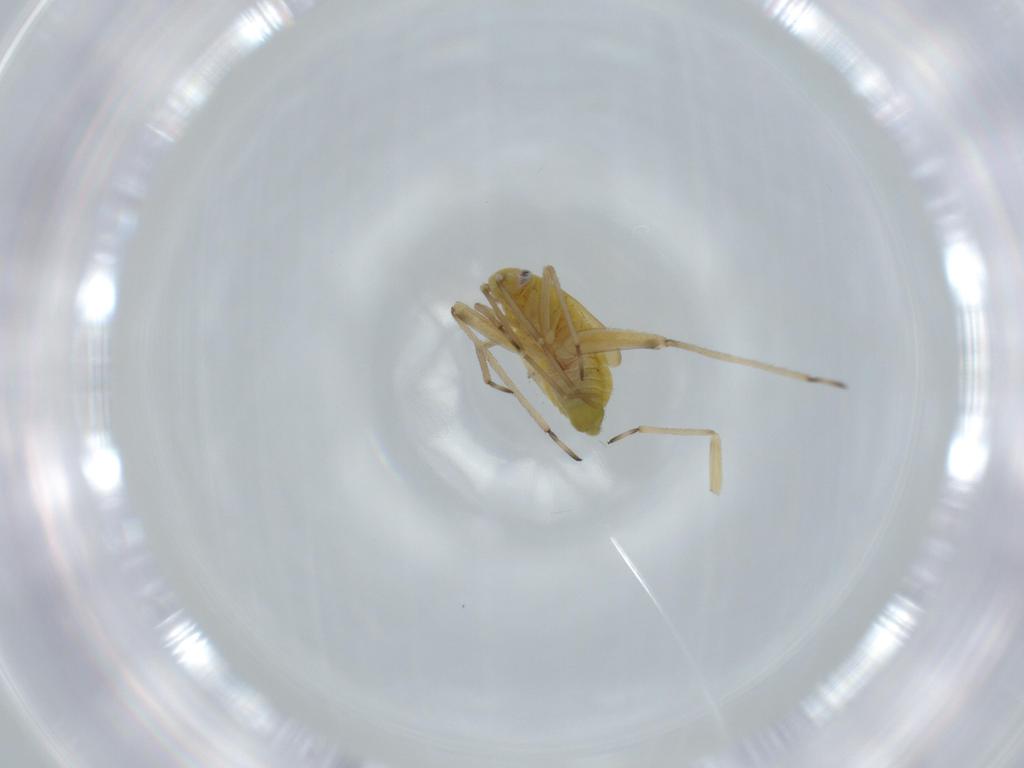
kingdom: Animalia
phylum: Arthropoda
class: Insecta
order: Hemiptera
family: Miridae
